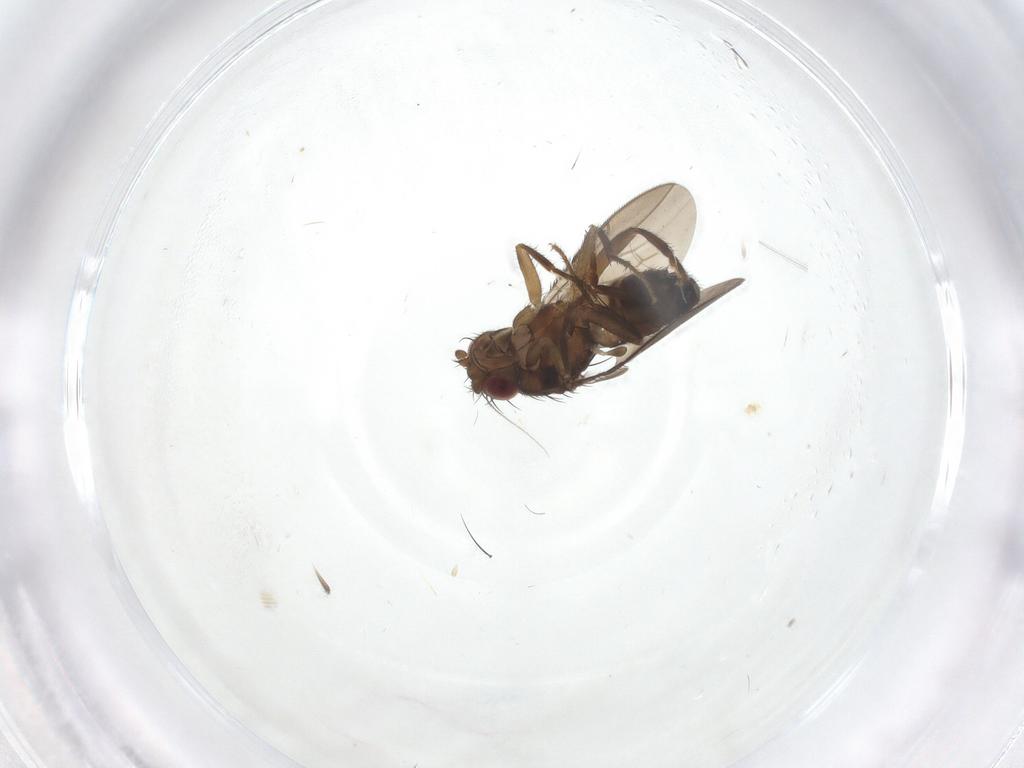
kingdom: Animalia
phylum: Arthropoda
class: Insecta
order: Diptera
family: Sphaeroceridae
